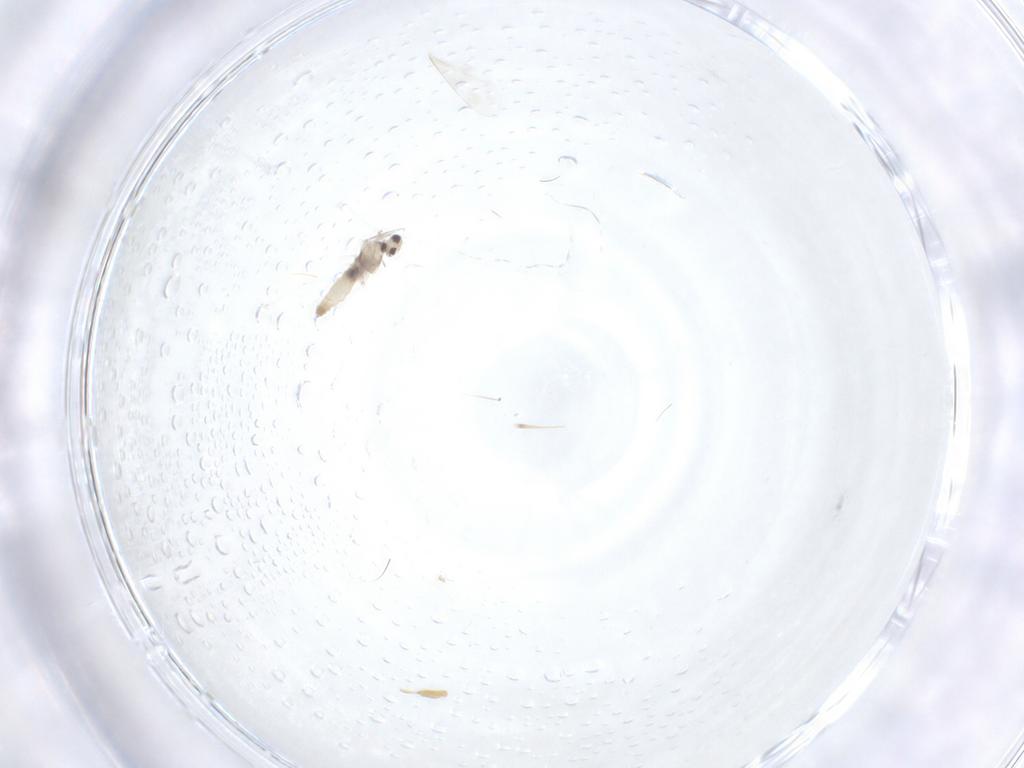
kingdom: Animalia
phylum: Arthropoda
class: Insecta
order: Diptera
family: Cecidomyiidae
